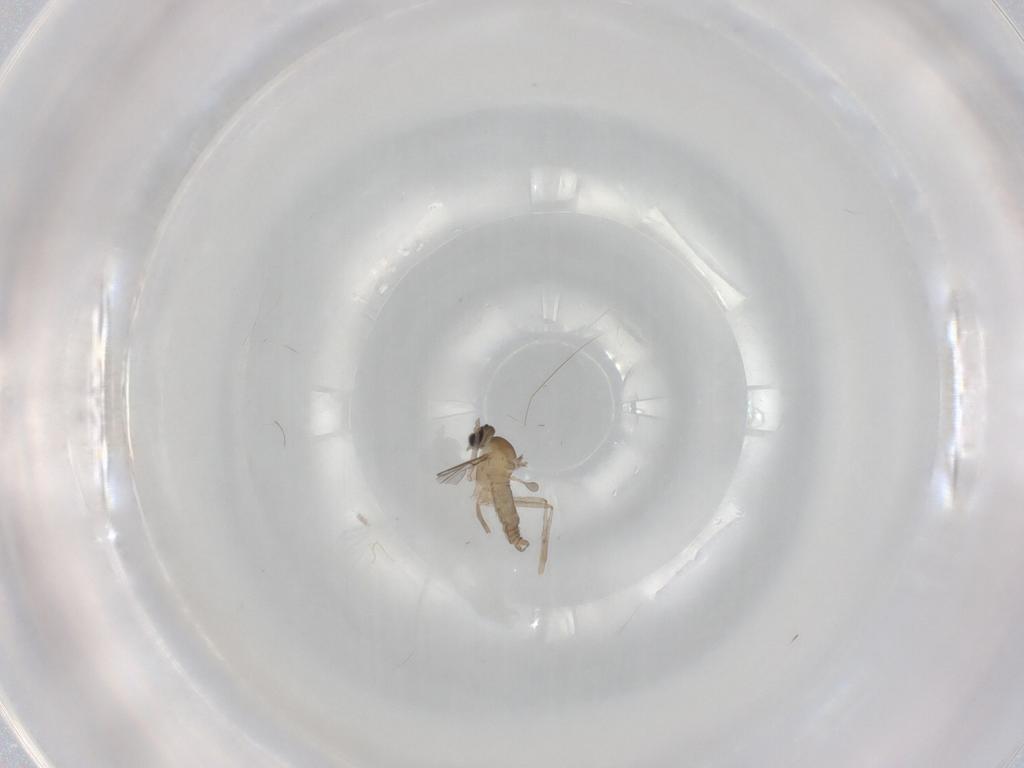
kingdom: Animalia
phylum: Arthropoda
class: Insecta
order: Diptera
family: Cecidomyiidae
